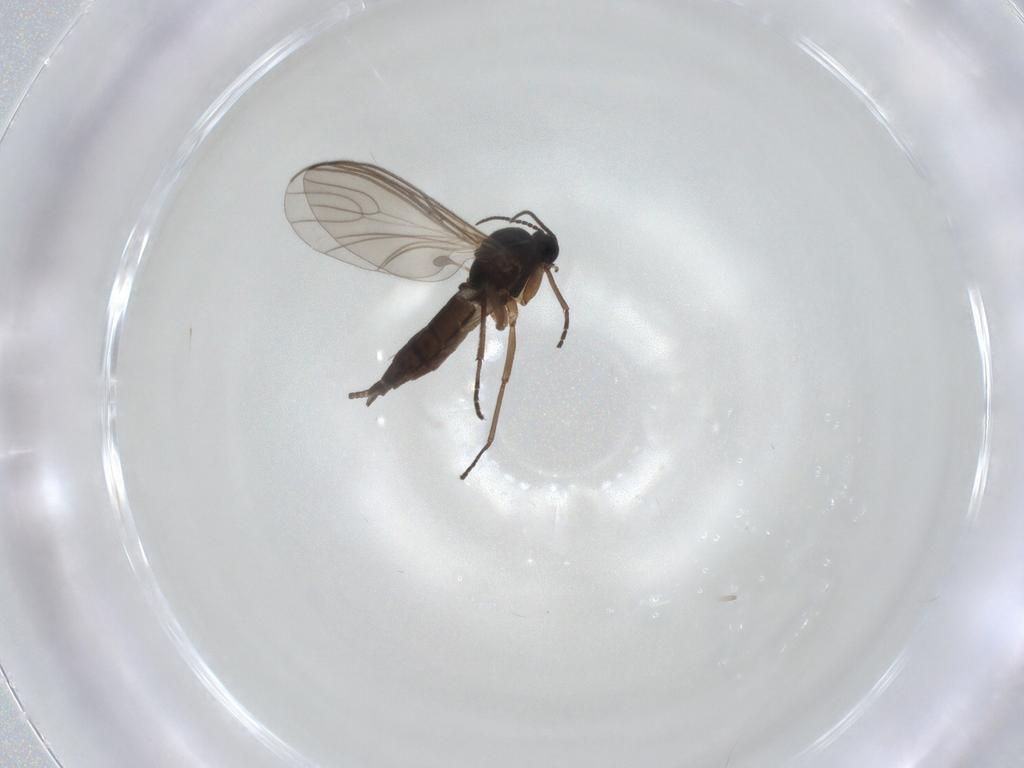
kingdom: Animalia
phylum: Arthropoda
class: Insecta
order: Diptera
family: Sciaridae
